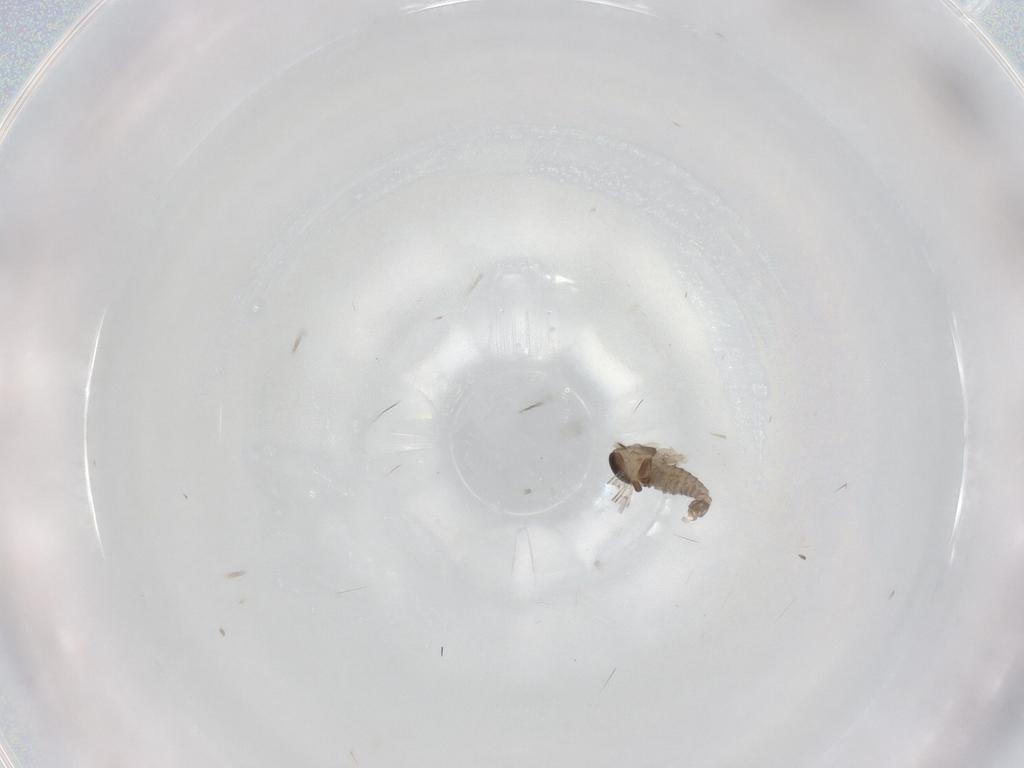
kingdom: Animalia
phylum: Arthropoda
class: Insecta
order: Diptera
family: Cecidomyiidae
